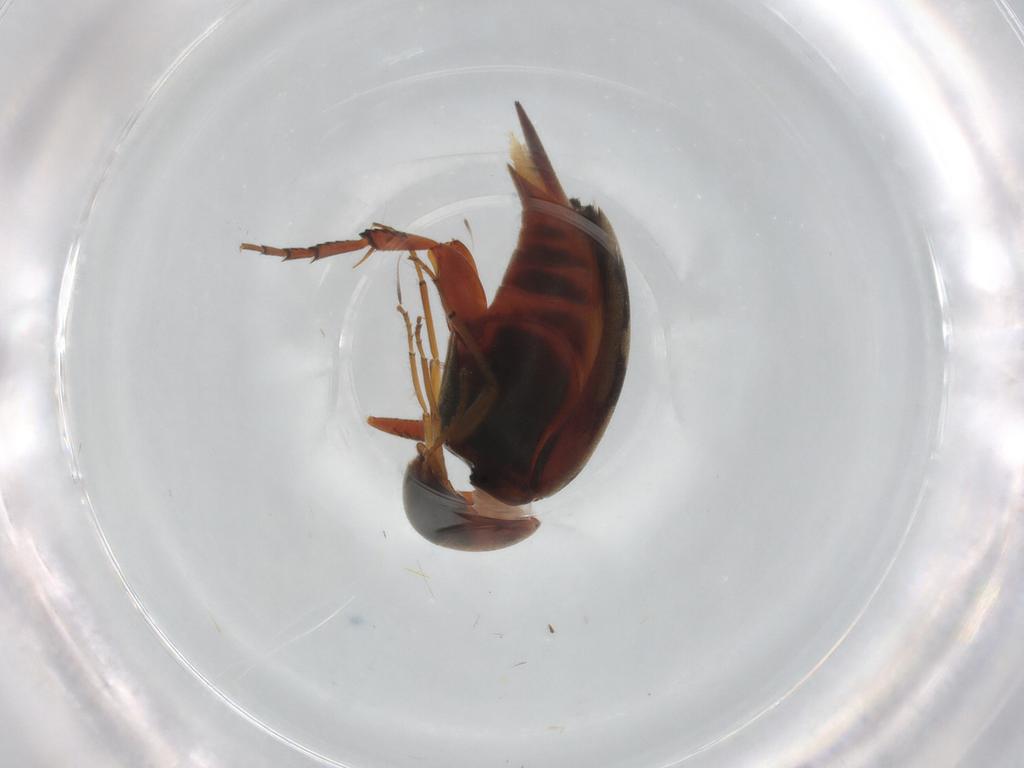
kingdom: Animalia
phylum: Arthropoda
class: Insecta
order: Coleoptera
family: Mordellidae
